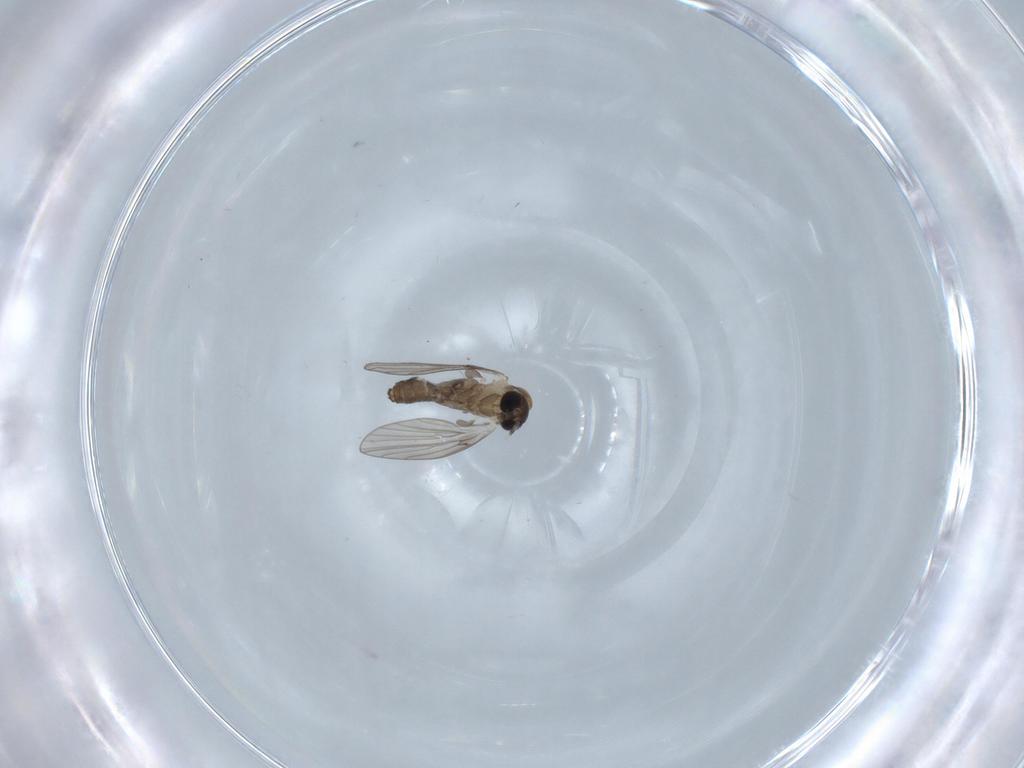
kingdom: Animalia
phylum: Arthropoda
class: Insecta
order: Diptera
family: Psychodidae
